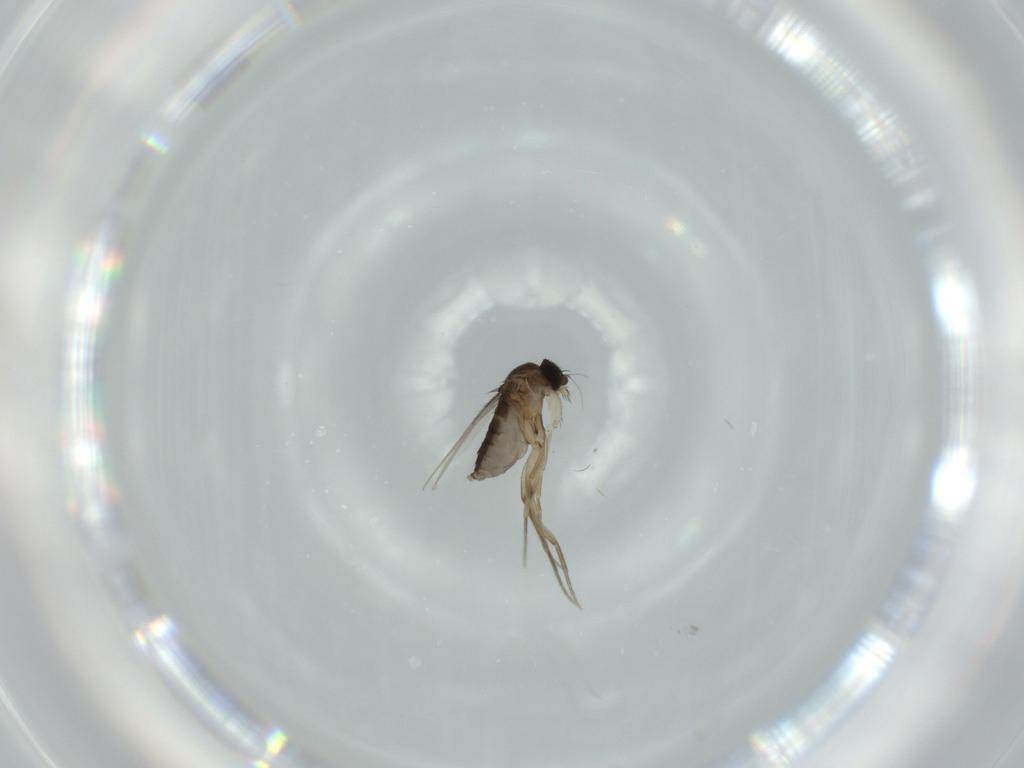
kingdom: Animalia
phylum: Arthropoda
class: Insecta
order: Diptera
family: Phoridae
